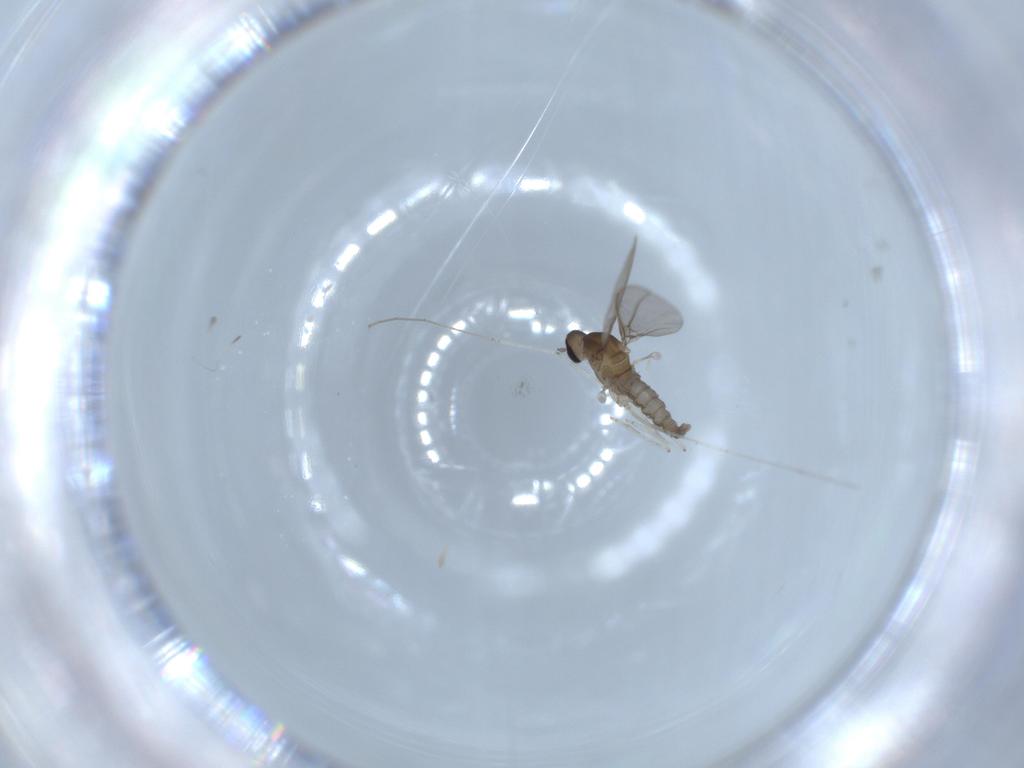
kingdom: Animalia
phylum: Arthropoda
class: Insecta
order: Diptera
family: Cecidomyiidae
